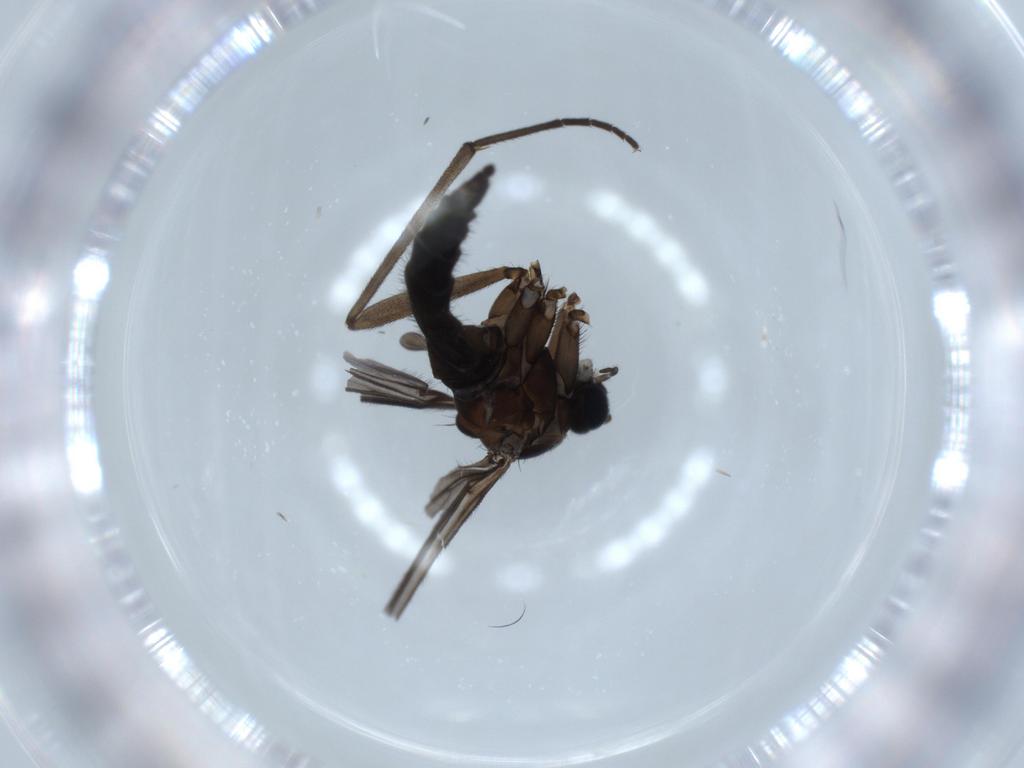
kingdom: Animalia
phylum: Arthropoda
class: Insecta
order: Diptera
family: Sciaridae
